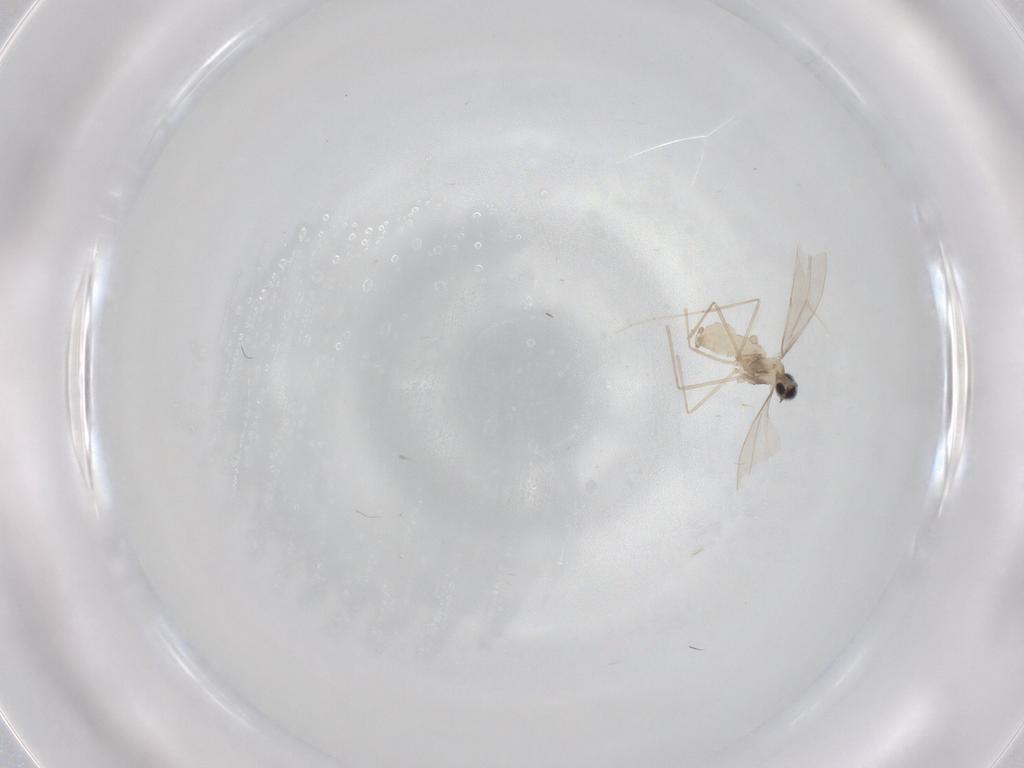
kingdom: Animalia
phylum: Arthropoda
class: Insecta
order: Diptera
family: Cecidomyiidae
